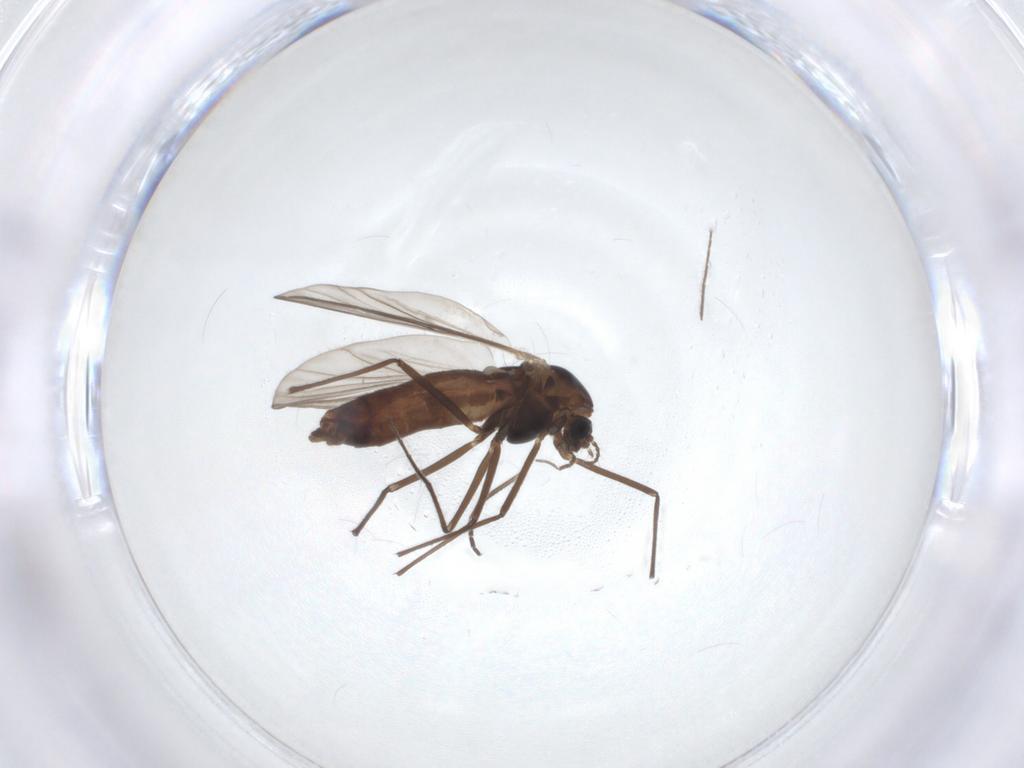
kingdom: Animalia
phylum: Arthropoda
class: Insecta
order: Diptera
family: Sciaridae
